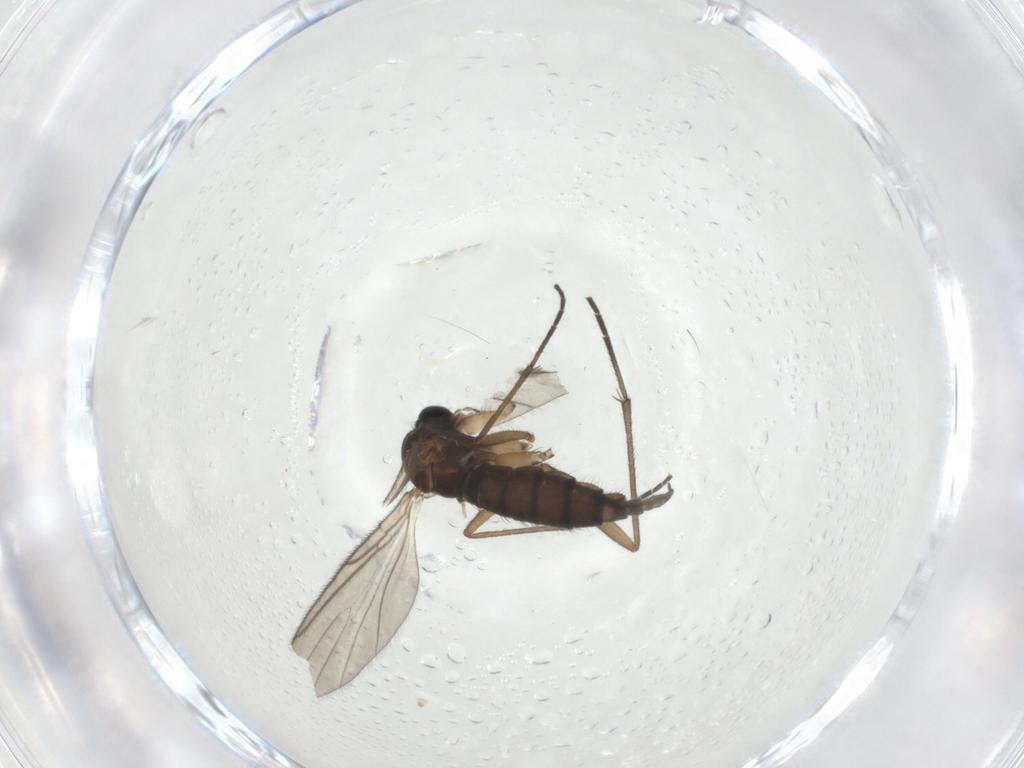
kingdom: Animalia
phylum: Arthropoda
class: Insecta
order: Diptera
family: Sciaridae
